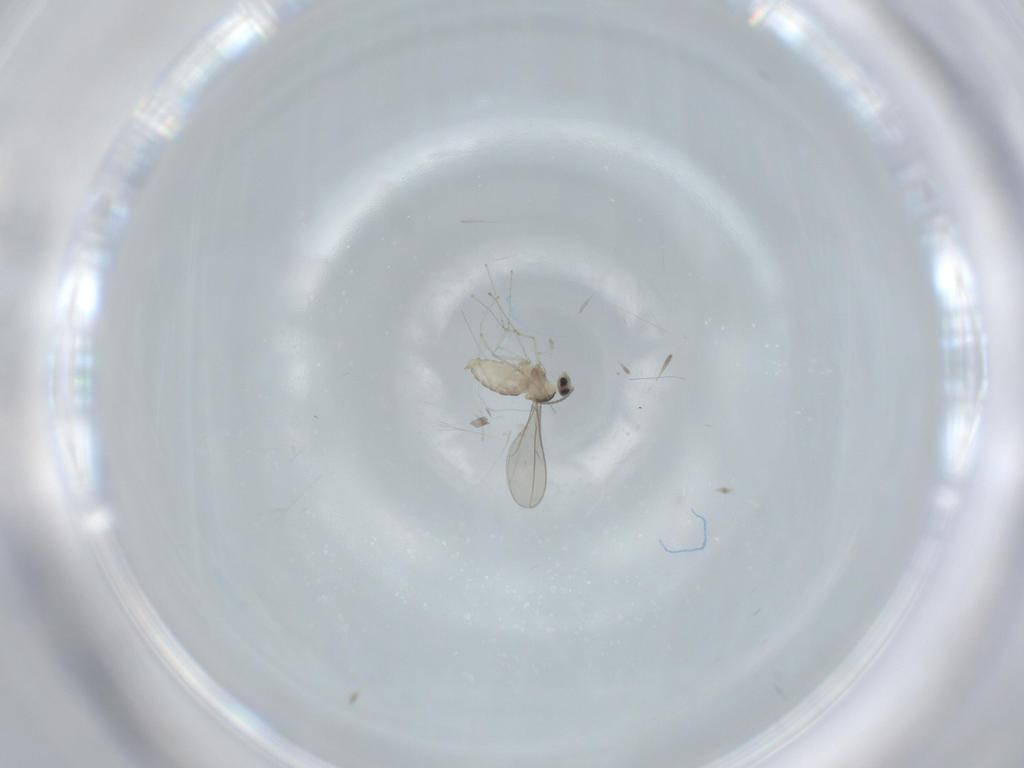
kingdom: Animalia
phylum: Arthropoda
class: Insecta
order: Diptera
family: Cecidomyiidae
